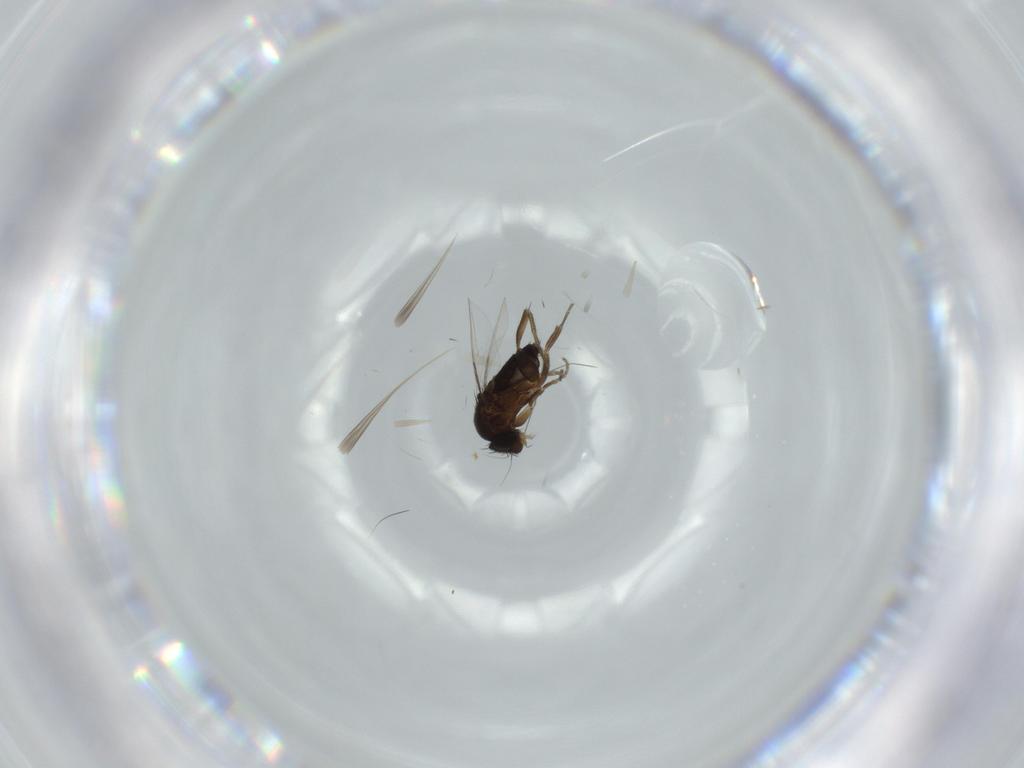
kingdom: Animalia
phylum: Arthropoda
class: Insecta
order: Diptera
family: Phoridae
